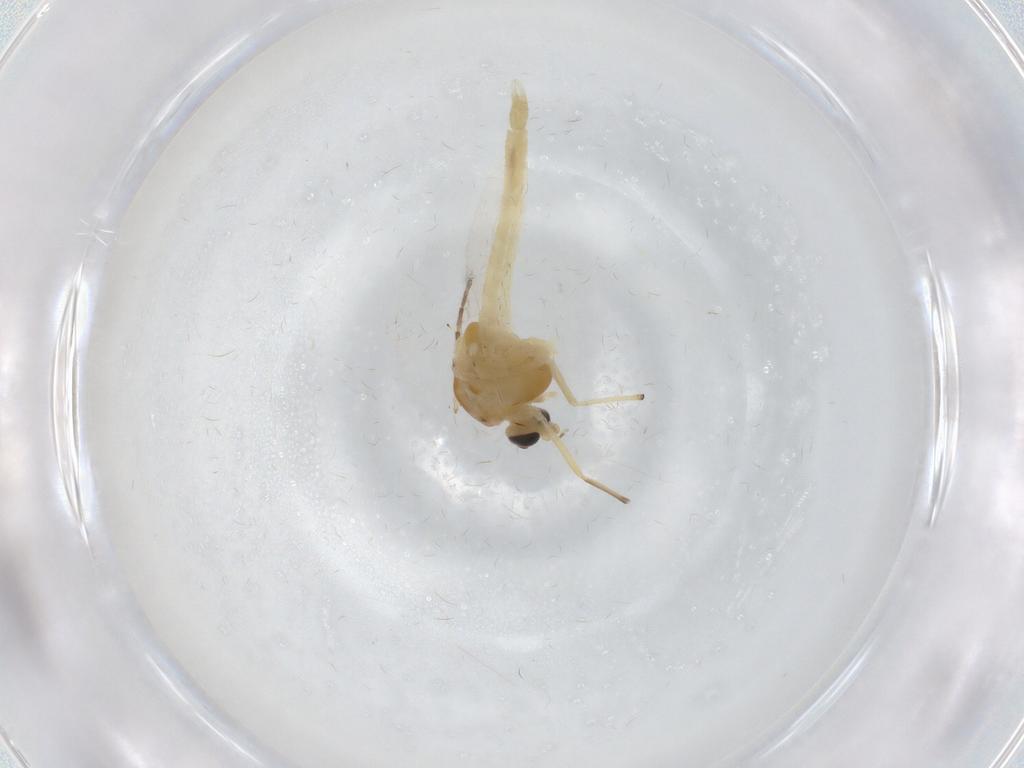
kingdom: Animalia
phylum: Arthropoda
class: Insecta
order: Diptera
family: Chironomidae
